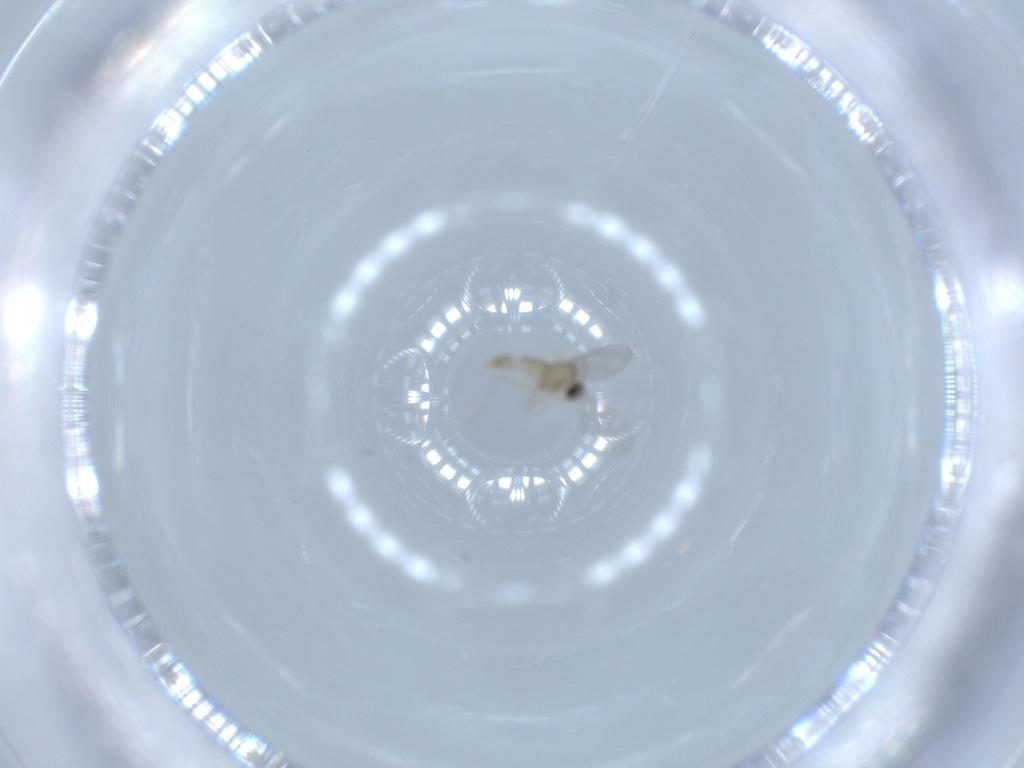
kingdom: Animalia
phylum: Arthropoda
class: Insecta
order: Diptera
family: Cecidomyiidae
